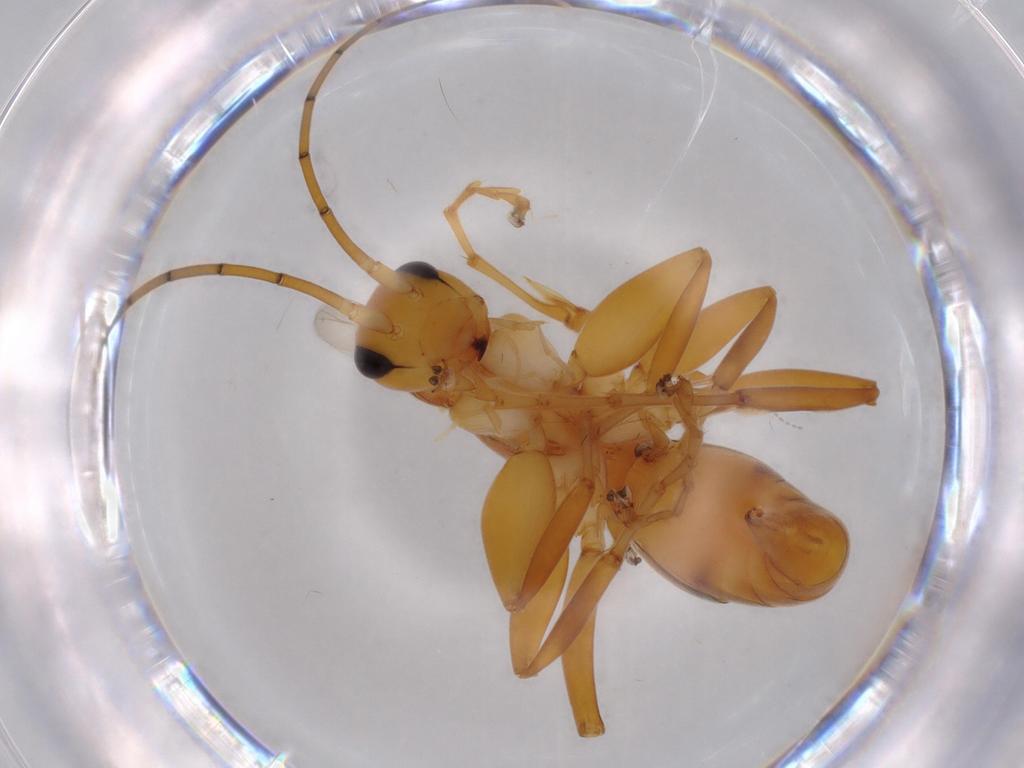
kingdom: Animalia
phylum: Arthropoda
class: Insecta
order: Hymenoptera
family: Rhopalosomatidae
